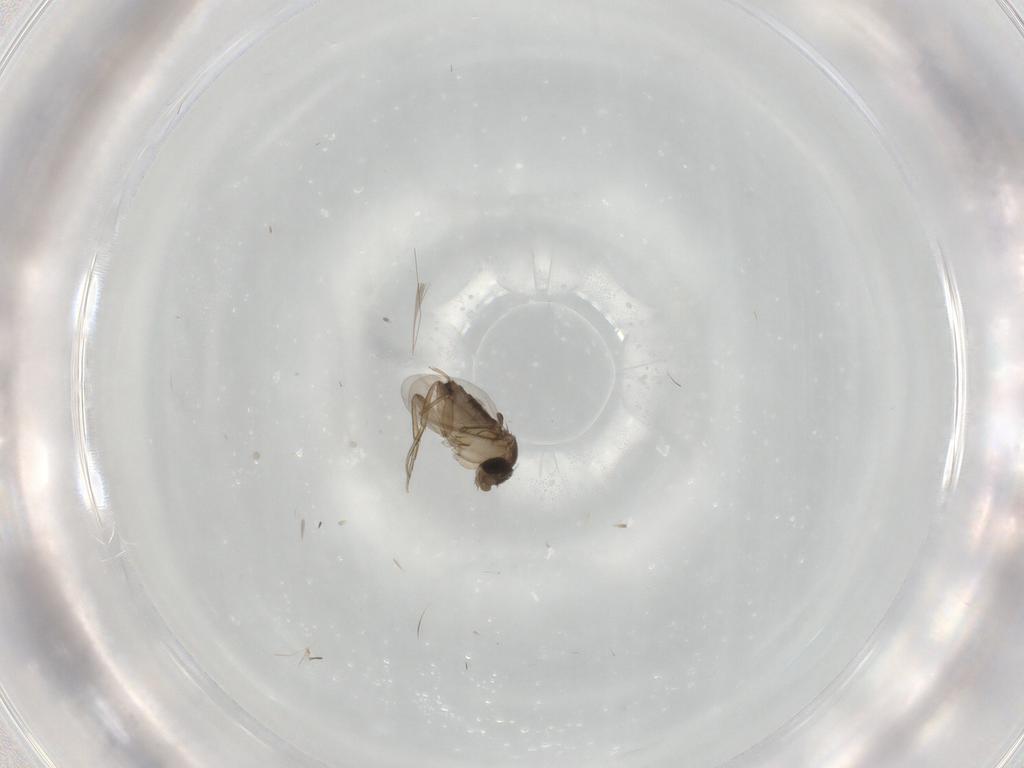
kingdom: Animalia
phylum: Arthropoda
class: Insecta
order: Diptera
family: Phoridae
